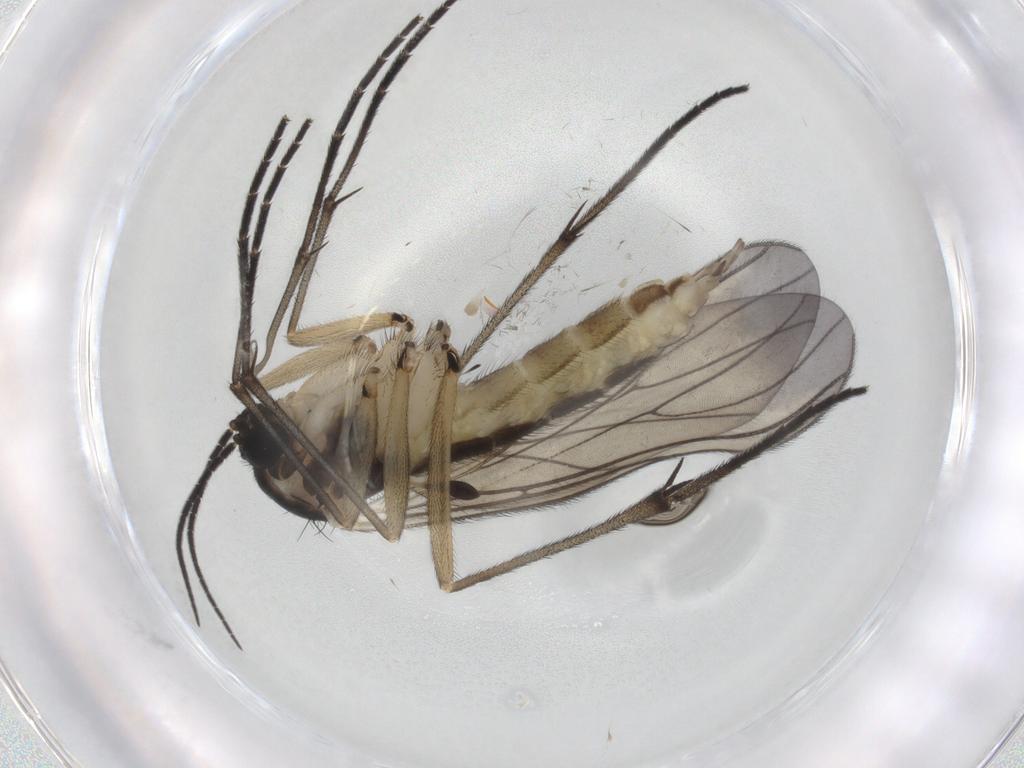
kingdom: Animalia
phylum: Arthropoda
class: Insecta
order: Diptera
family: Sciaridae
